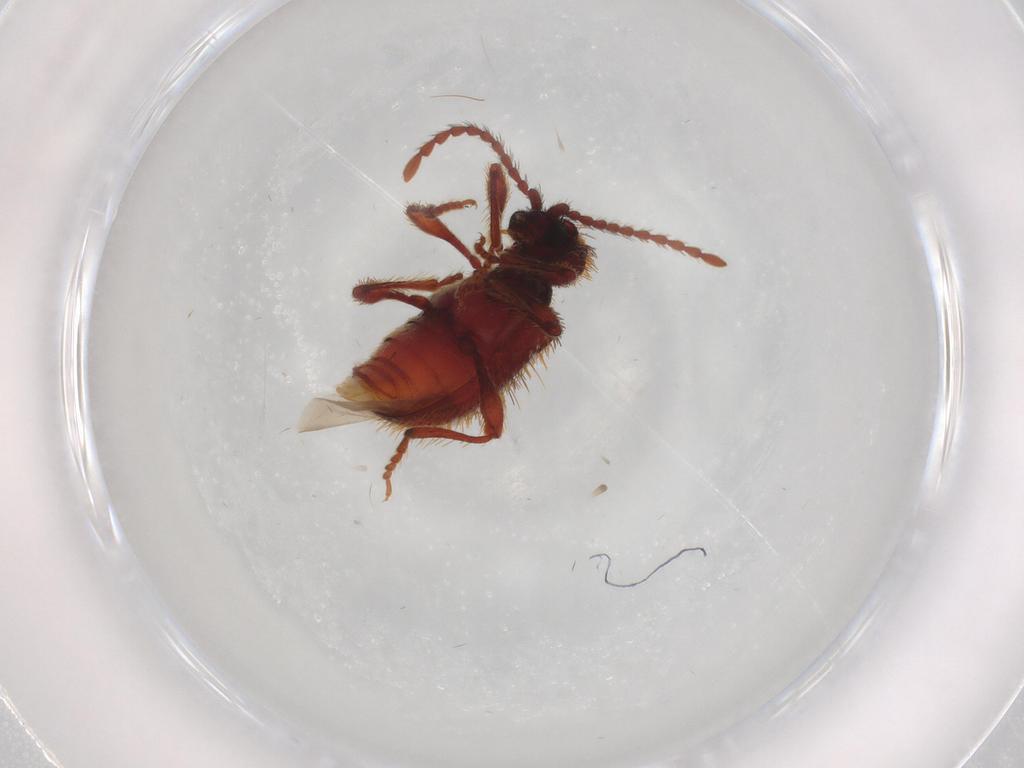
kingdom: Animalia
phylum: Arthropoda
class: Insecta
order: Coleoptera
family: Ptinidae
